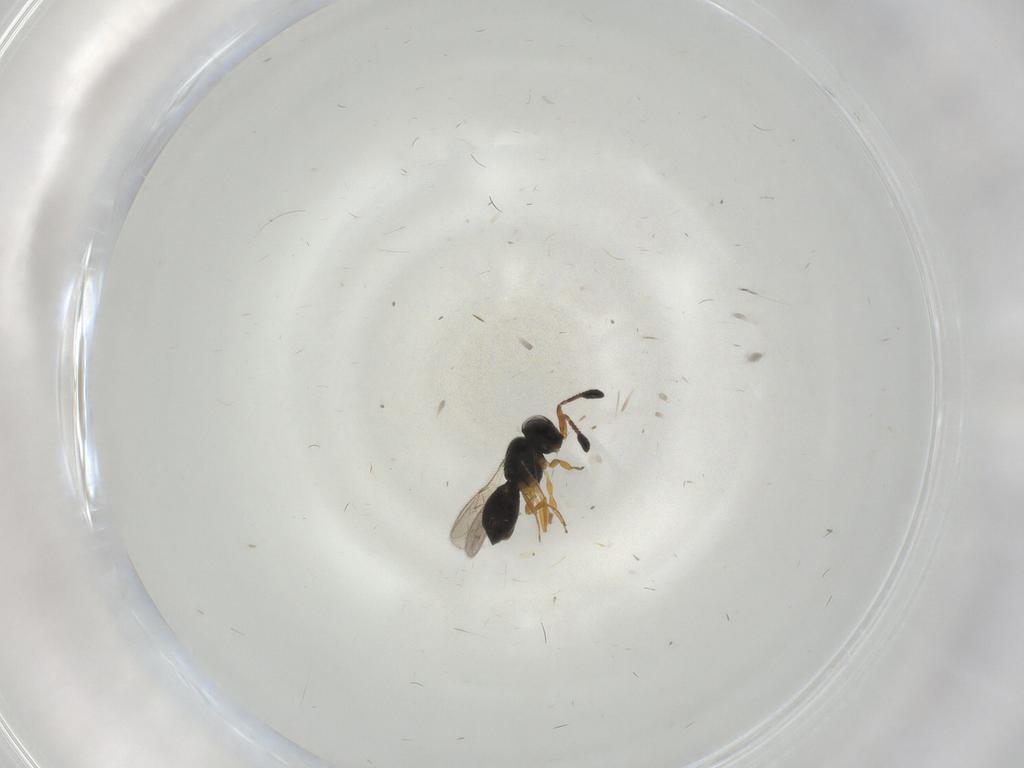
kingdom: Animalia
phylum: Arthropoda
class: Insecta
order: Hymenoptera
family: Scelionidae
